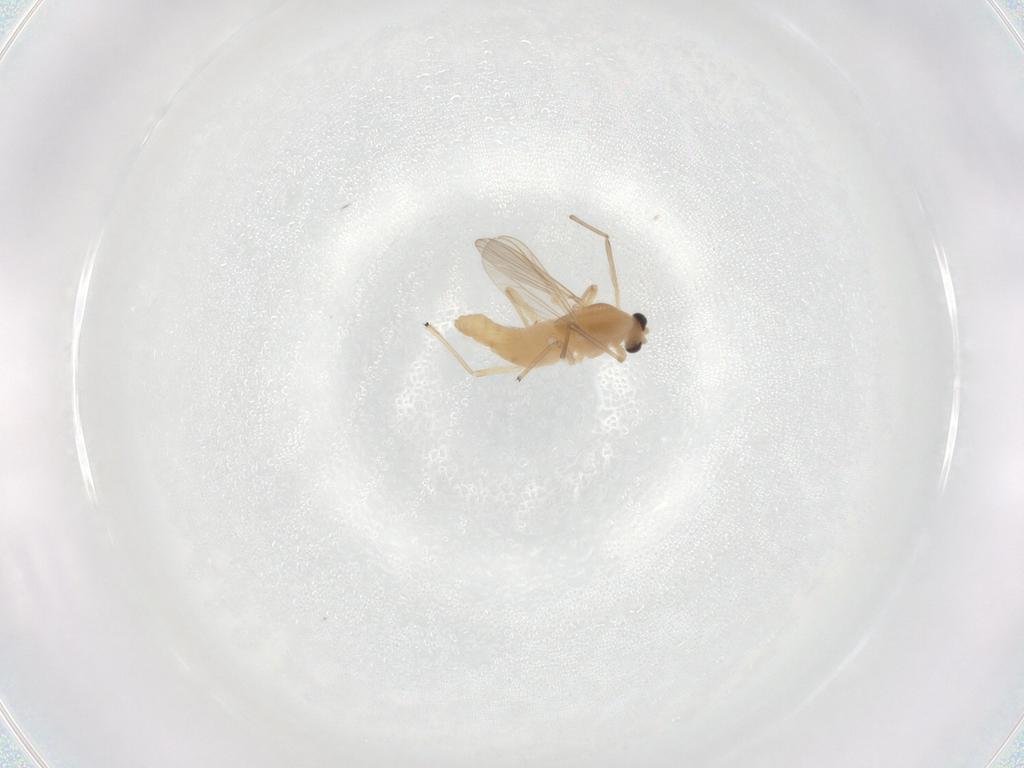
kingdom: Animalia
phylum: Arthropoda
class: Insecta
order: Diptera
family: Chironomidae
